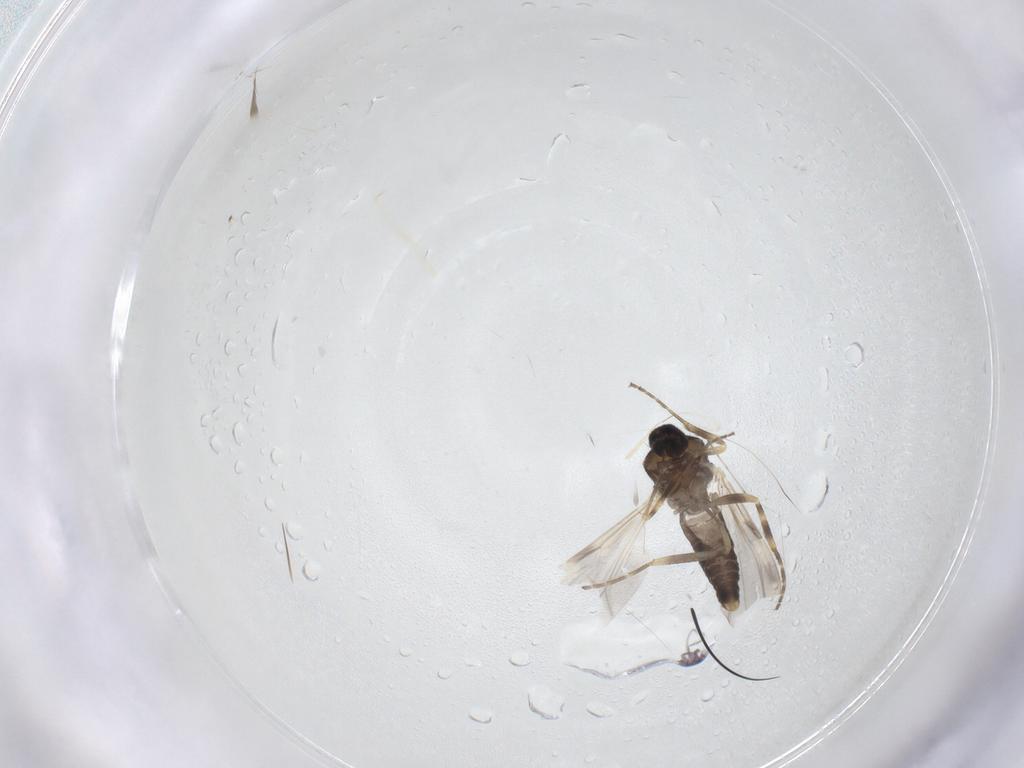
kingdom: Animalia
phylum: Arthropoda
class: Insecta
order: Diptera
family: Ceratopogonidae
